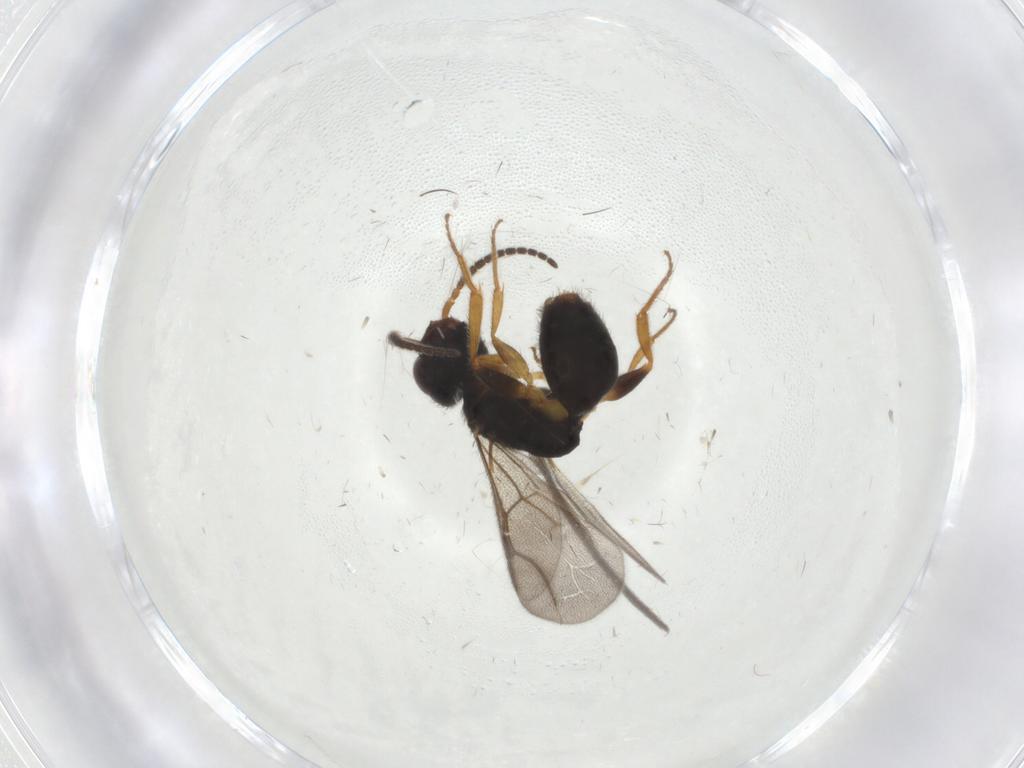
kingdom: Animalia
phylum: Arthropoda
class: Insecta
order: Hymenoptera
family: Bethylidae
